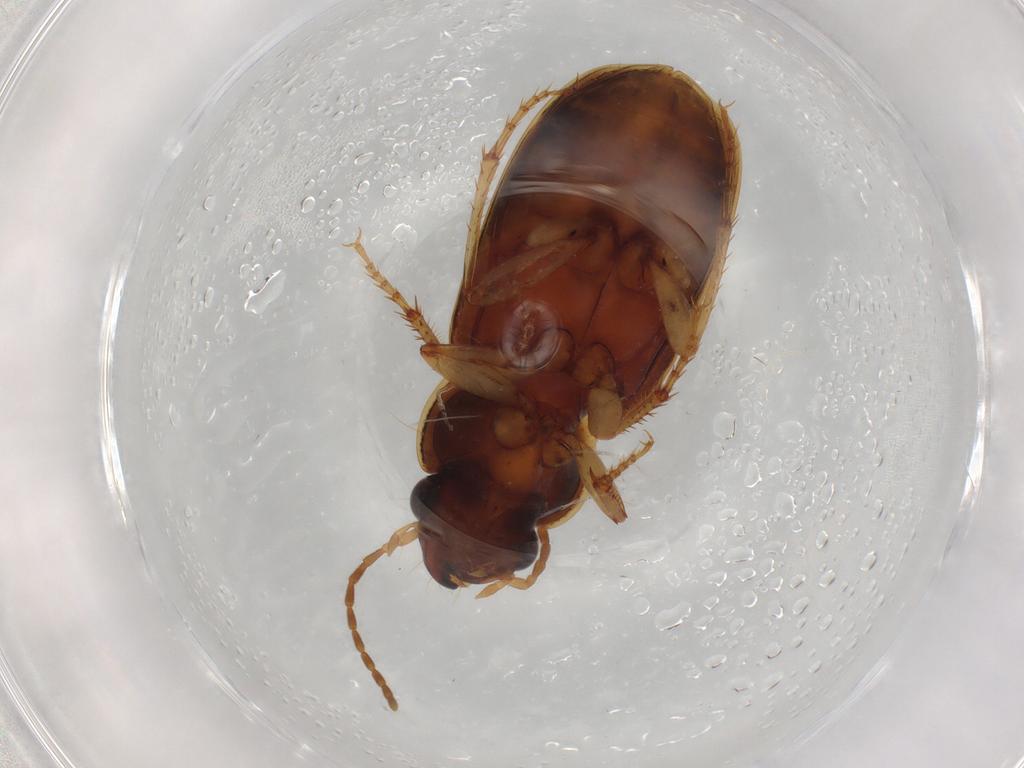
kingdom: Animalia
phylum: Arthropoda
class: Insecta
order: Coleoptera
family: Carabidae
